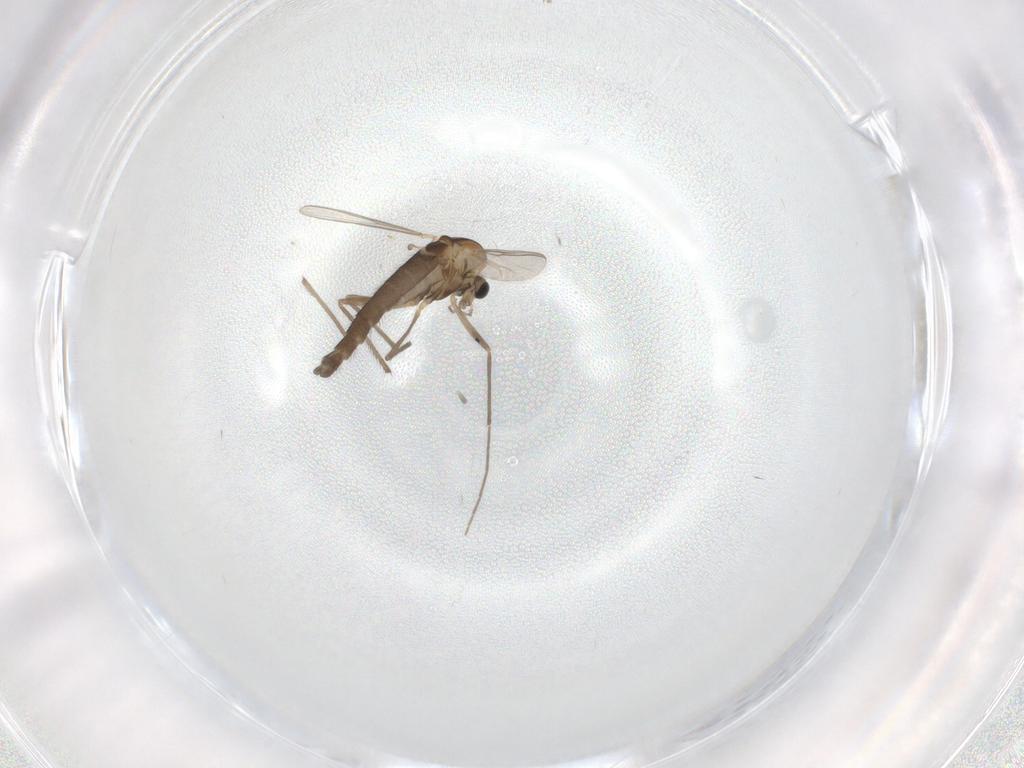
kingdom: Animalia
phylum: Arthropoda
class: Insecta
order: Diptera
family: Chironomidae
